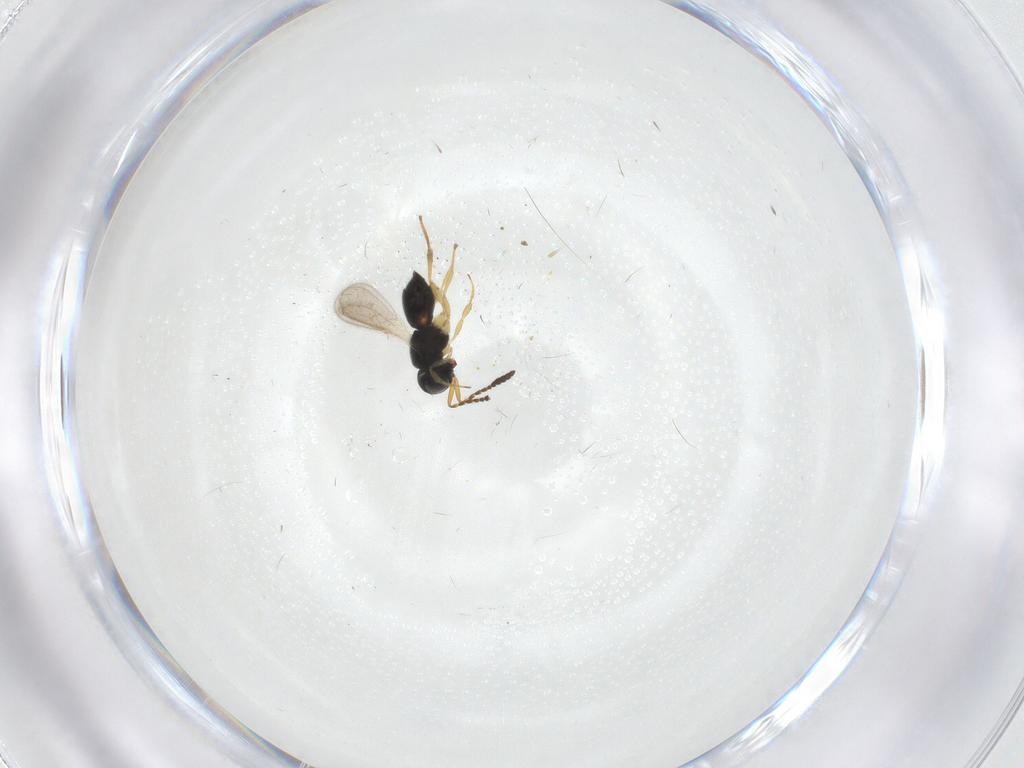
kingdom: Animalia
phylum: Arthropoda
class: Insecta
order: Hymenoptera
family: Scelionidae
